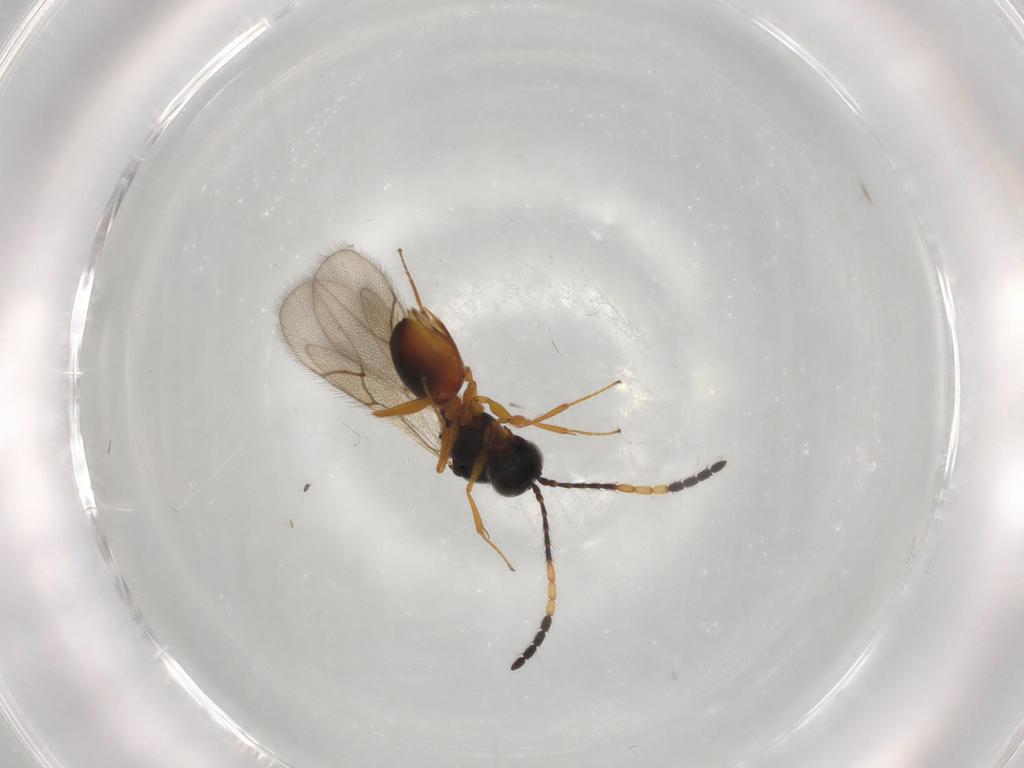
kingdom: Animalia
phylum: Arthropoda
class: Insecta
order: Hymenoptera
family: Figitidae
